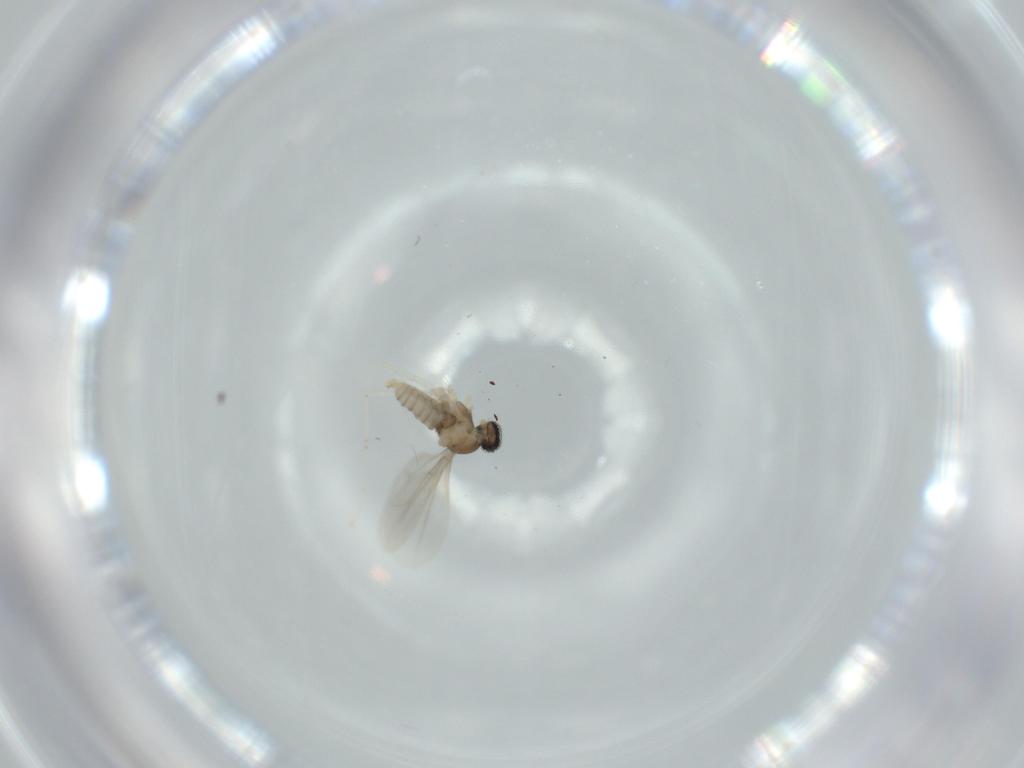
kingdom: Animalia
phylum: Arthropoda
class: Insecta
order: Diptera
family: Cecidomyiidae
